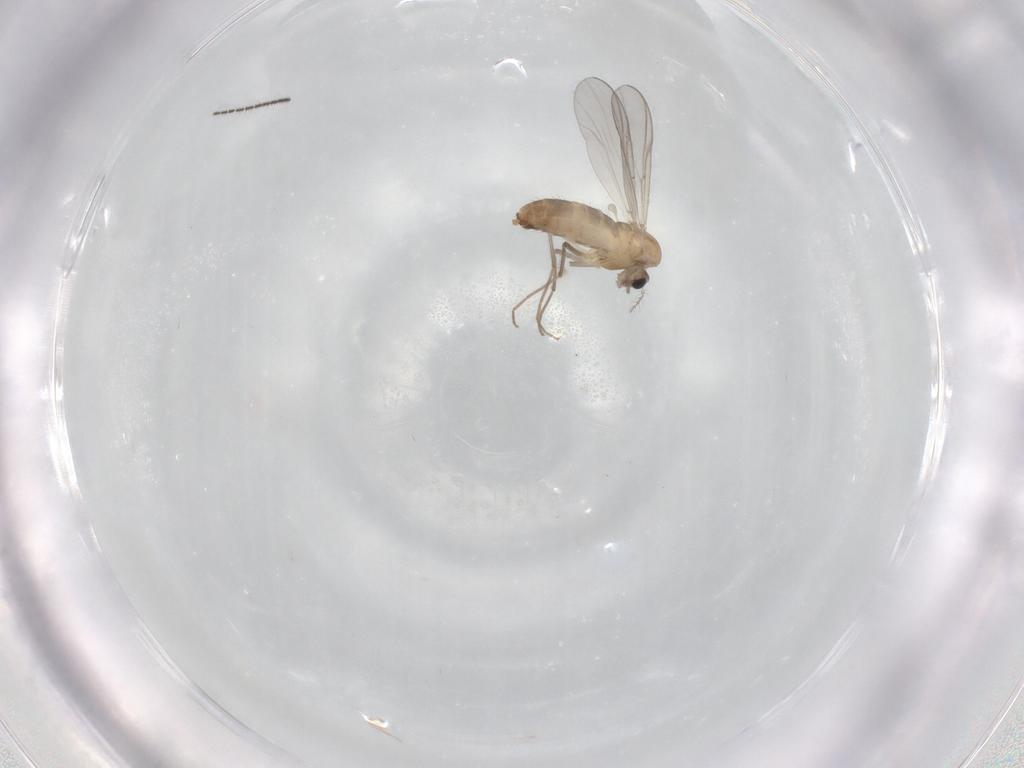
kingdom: Animalia
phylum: Arthropoda
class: Insecta
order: Diptera
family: Chironomidae
